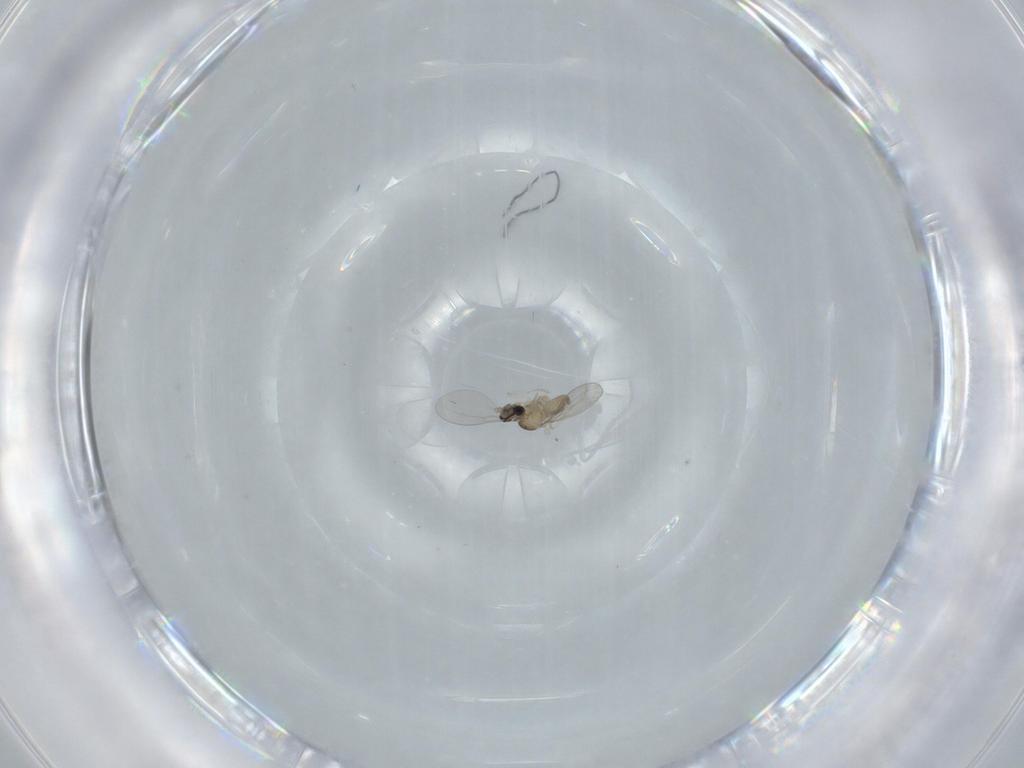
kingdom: Animalia
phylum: Arthropoda
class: Insecta
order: Diptera
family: Cecidomyiidae
